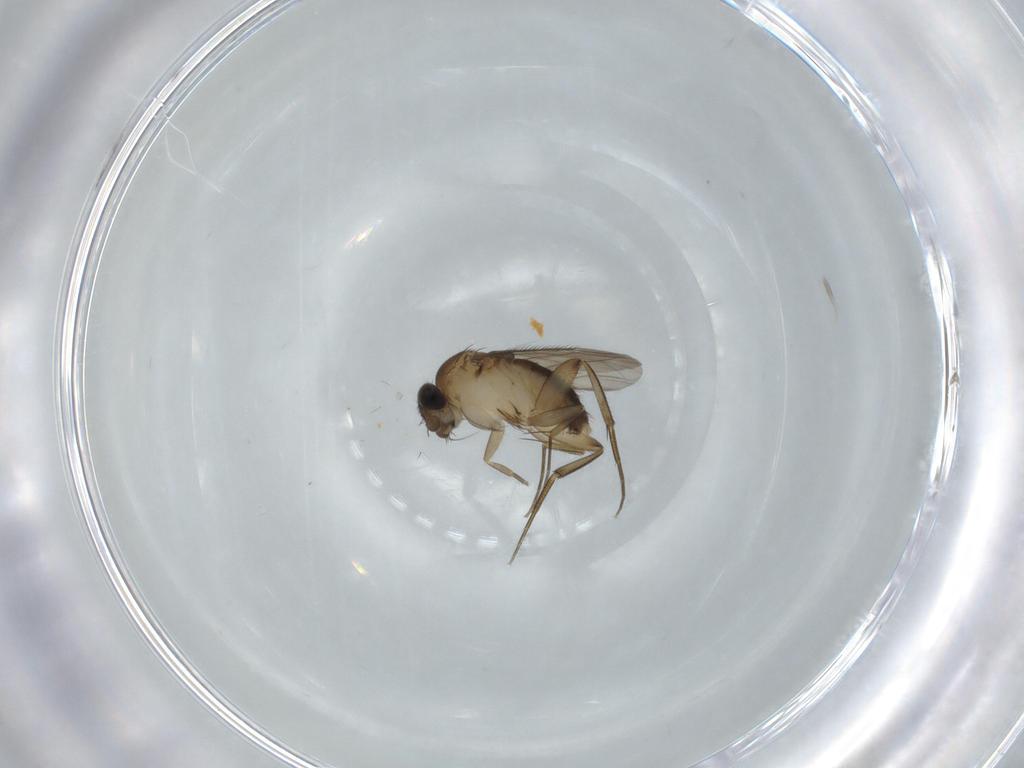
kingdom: Animalia
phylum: Arthropoda
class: Insecta
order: Diptera
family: Phoridae
